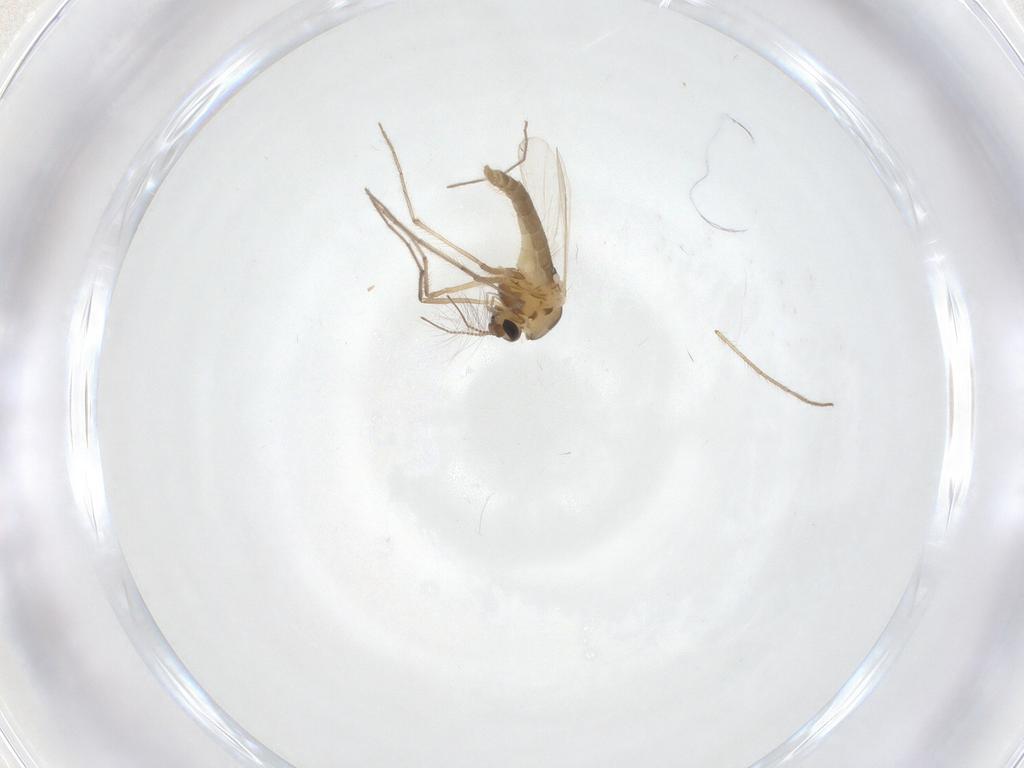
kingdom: Animalia
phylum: Arthropoda
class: Insecta
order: Diptera
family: Chironomidae
